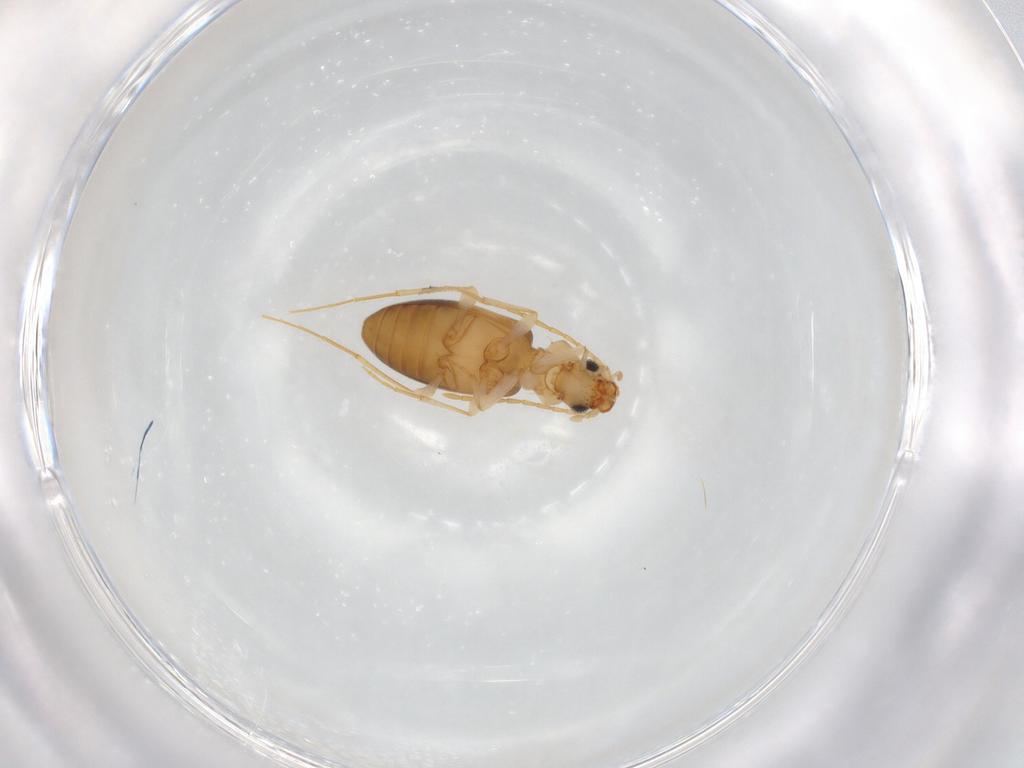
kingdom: Animalia
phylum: Arthropoda
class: Insecta
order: Coleoptera
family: Anthicidae
